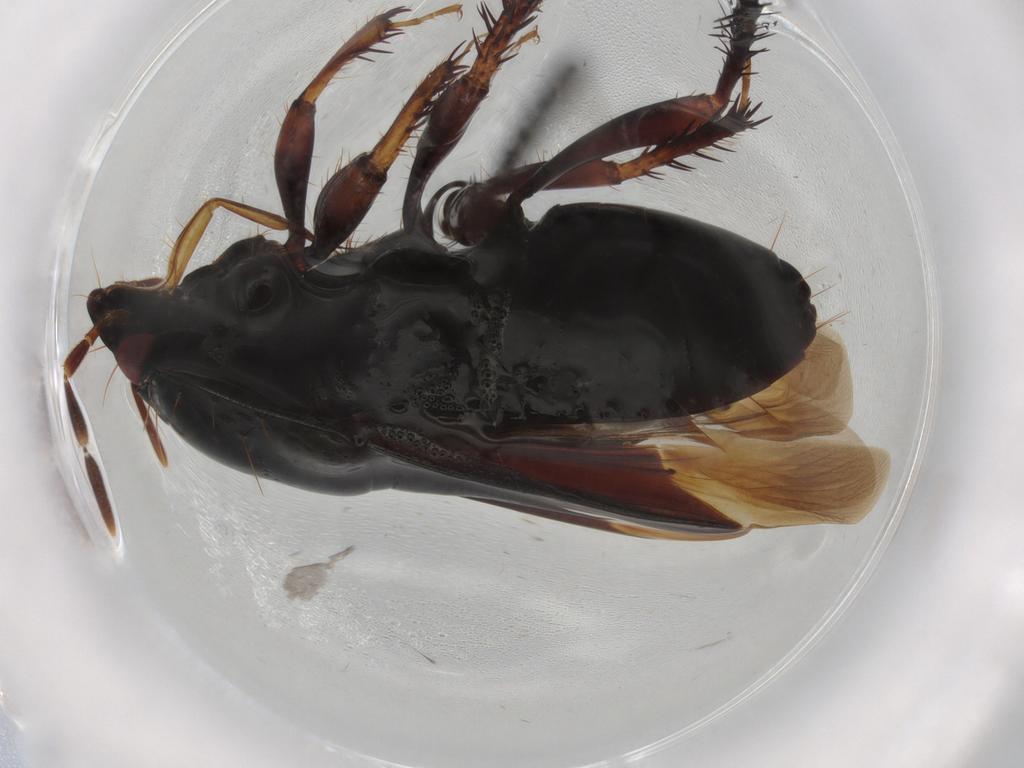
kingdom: Animalia
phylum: Arthropoda
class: Insecta
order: Hemiptera
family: Cydnidae
